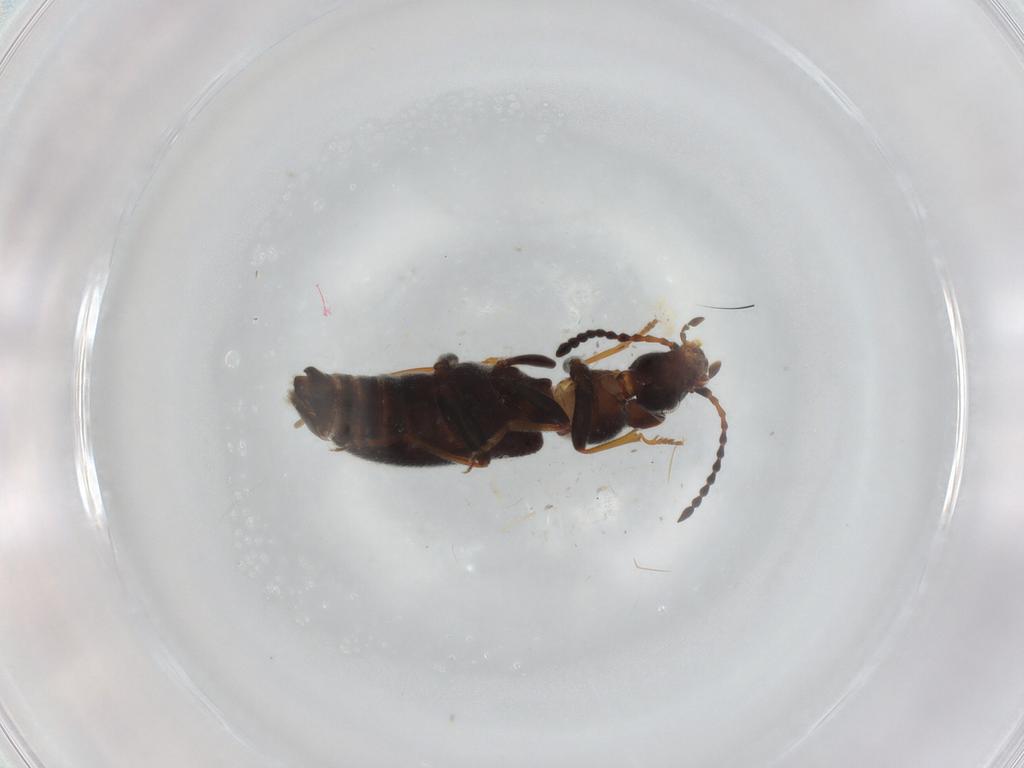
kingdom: Animalia
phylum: Arthropoda
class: Insecta
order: Coleoptera
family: Anthicidae
